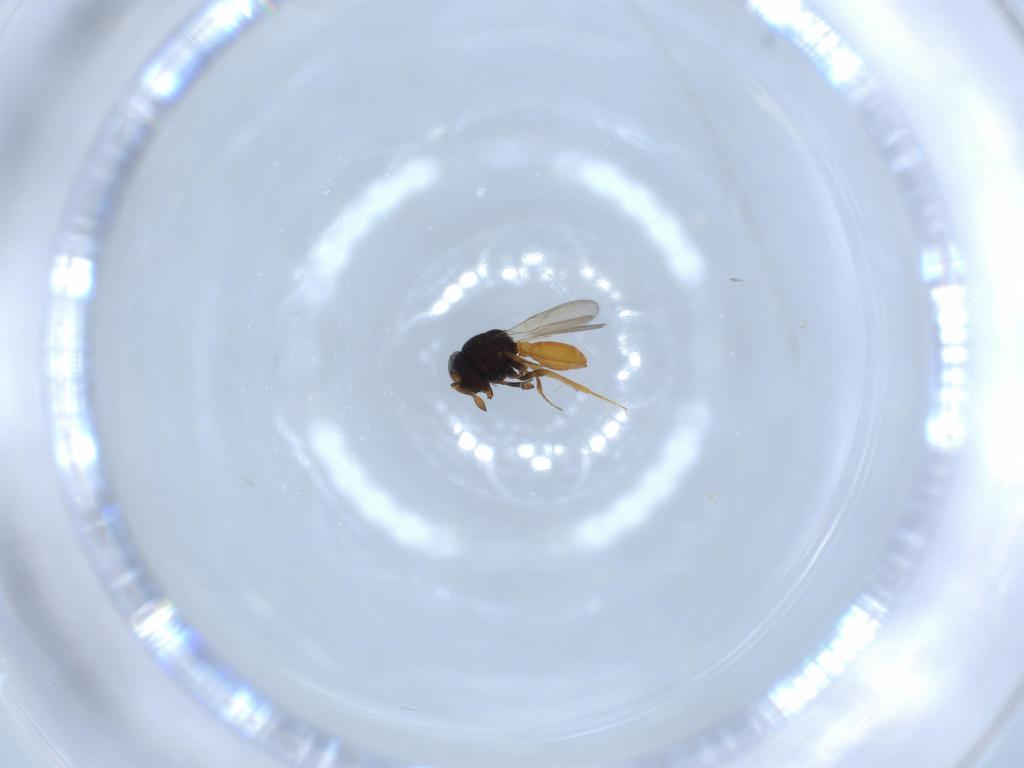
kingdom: Animalia
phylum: Arthropoda
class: Insecta
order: Hymenoptera
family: Scelionidae
